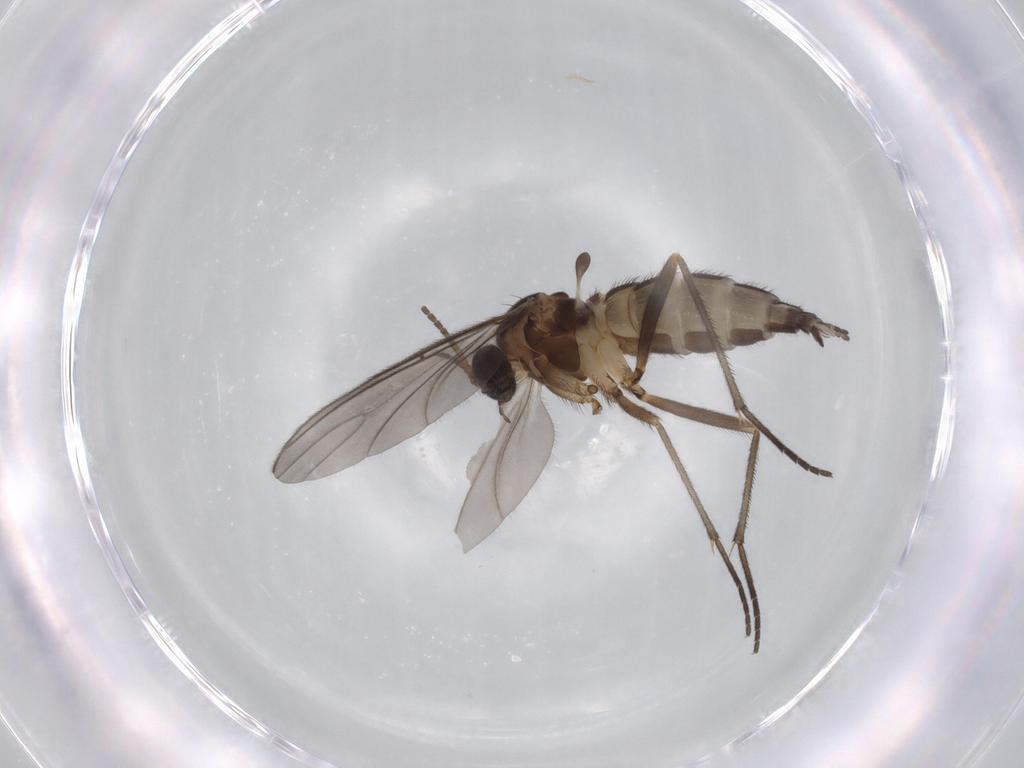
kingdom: Animalia
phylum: Arthropoda
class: Insecta
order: Diptera
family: Sciaridae
